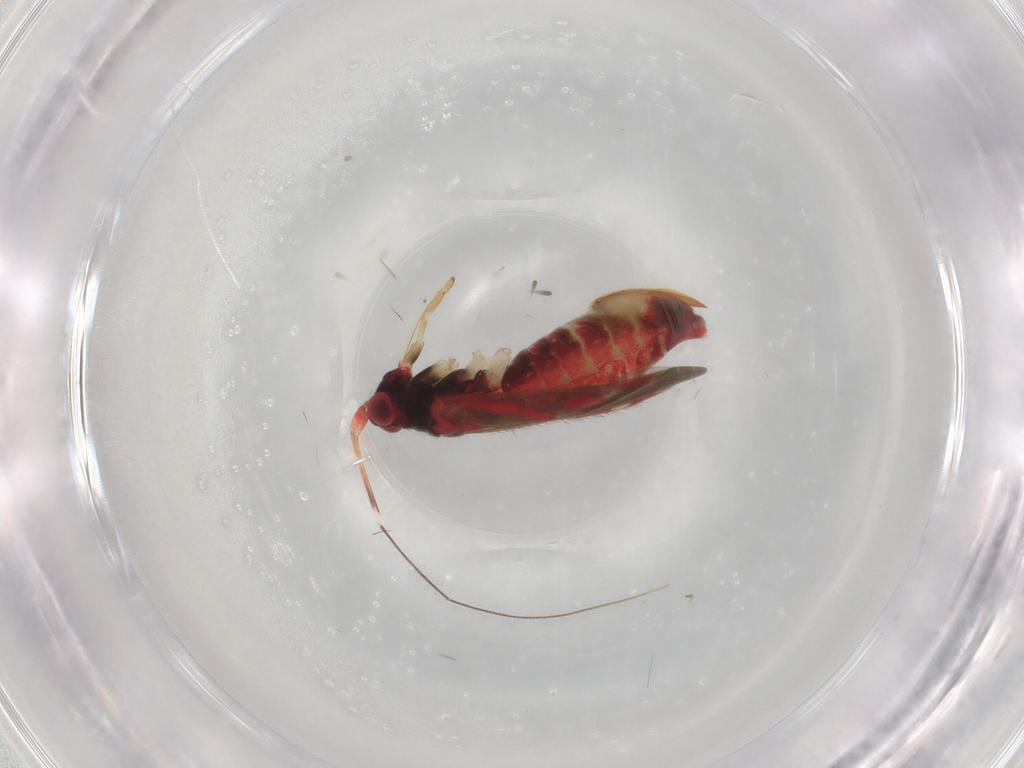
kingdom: Animalia
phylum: Arthropoda
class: Insecta
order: Hemiptera
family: Miridae
